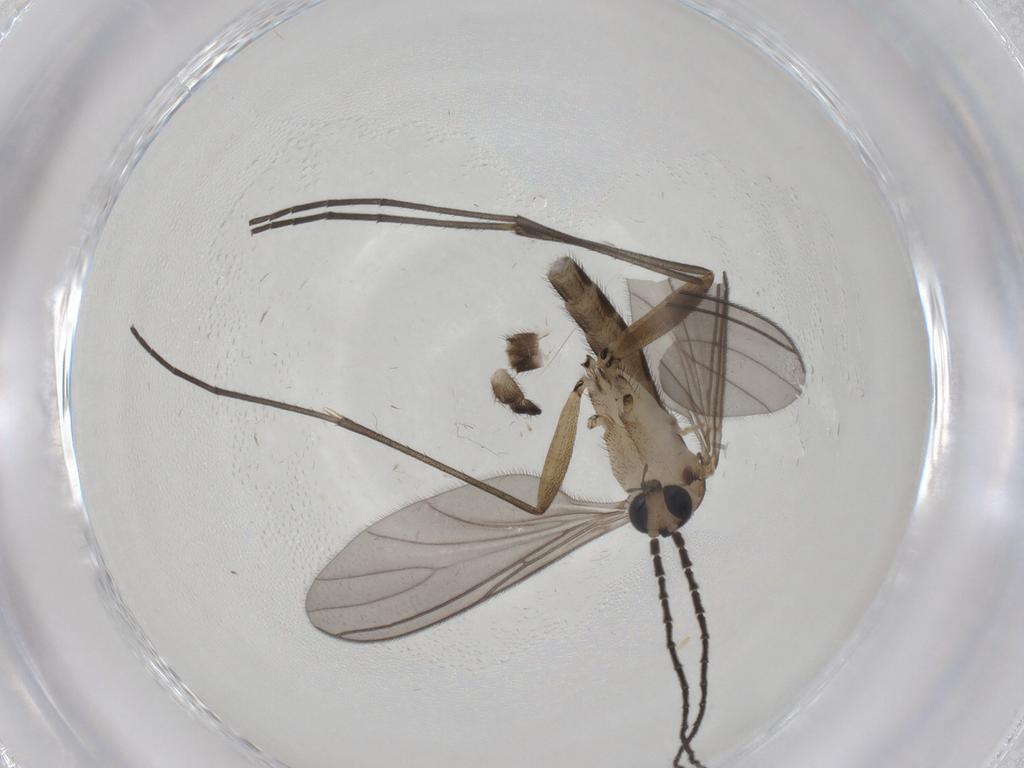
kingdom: Animalia
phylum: Arthropoda
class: Insecta
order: Diptera
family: Sciaridae
